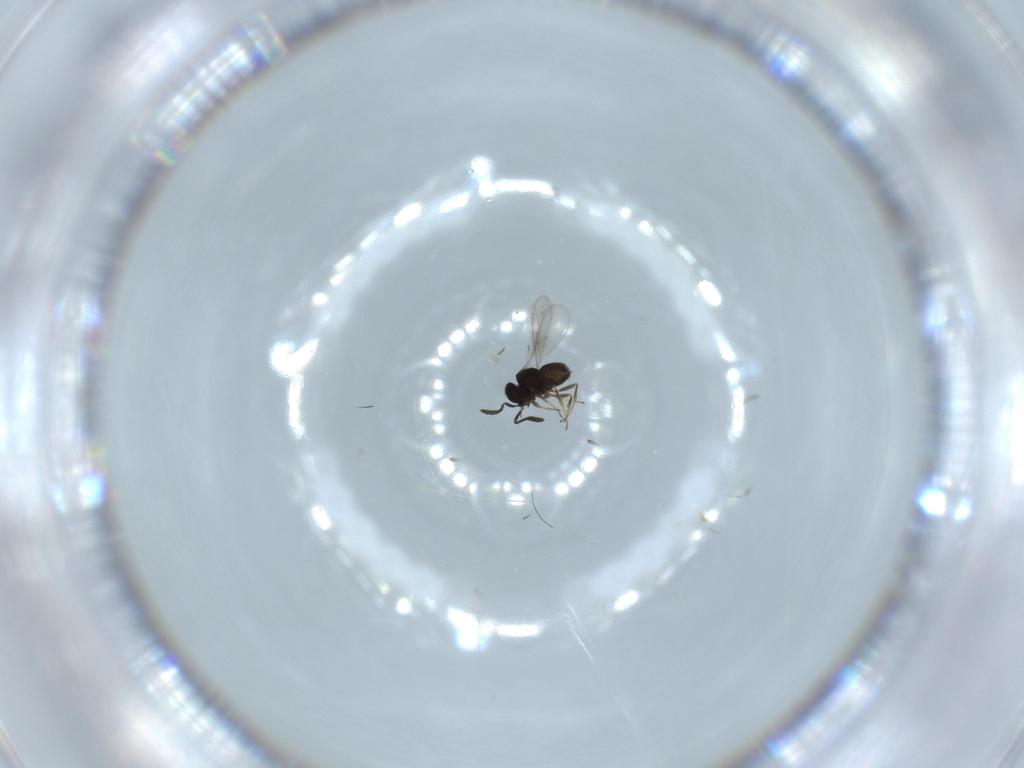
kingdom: Animalia
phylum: Arthropoda
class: Insecta
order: Hymenoptera
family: Scelionidae
